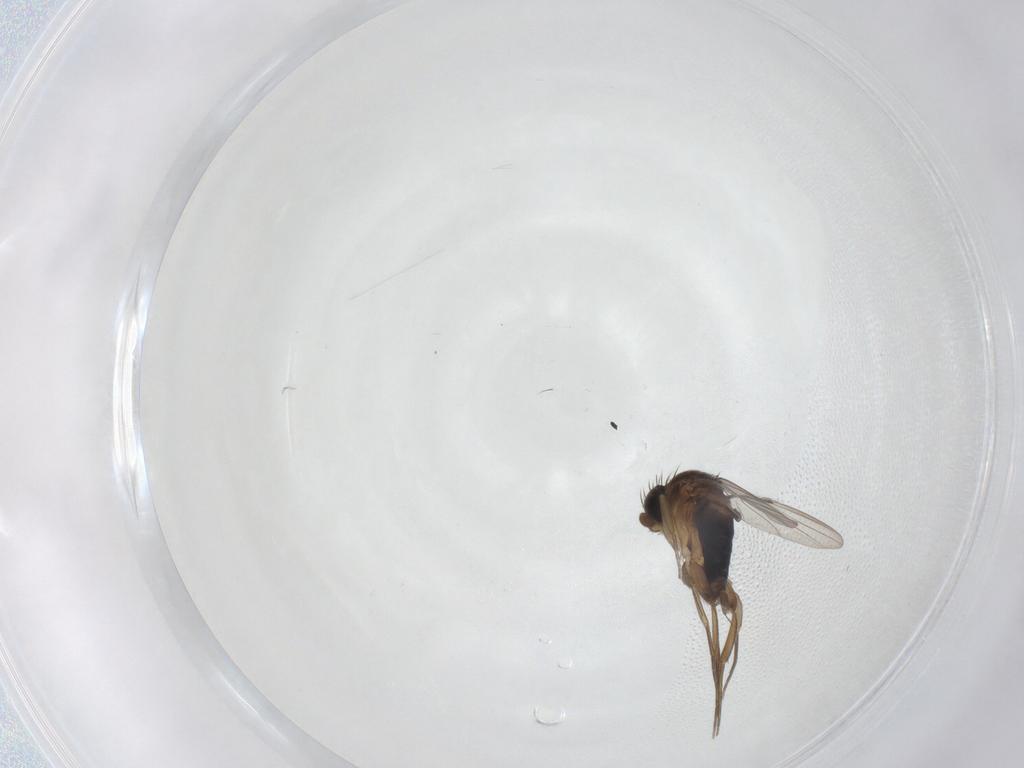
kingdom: Animalia
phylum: Arthropoda
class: Insecta
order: Diptera
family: Phoridae
